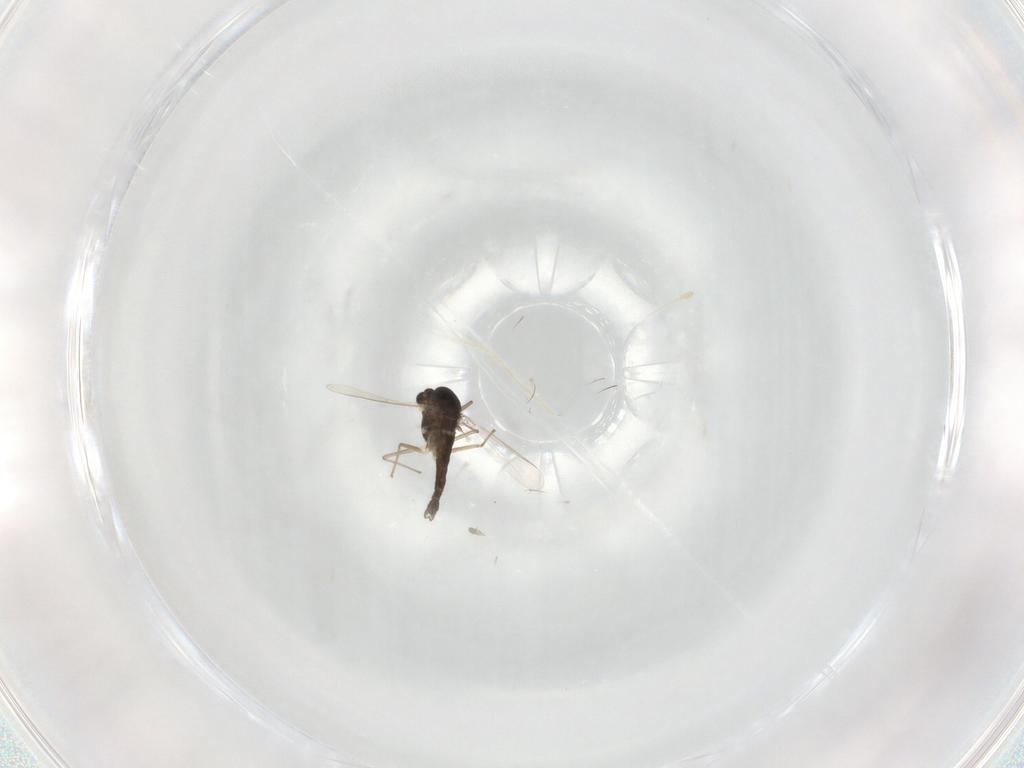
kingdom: Animalia
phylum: Arthropoda
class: Insecta
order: Diptera
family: Chironomidae
